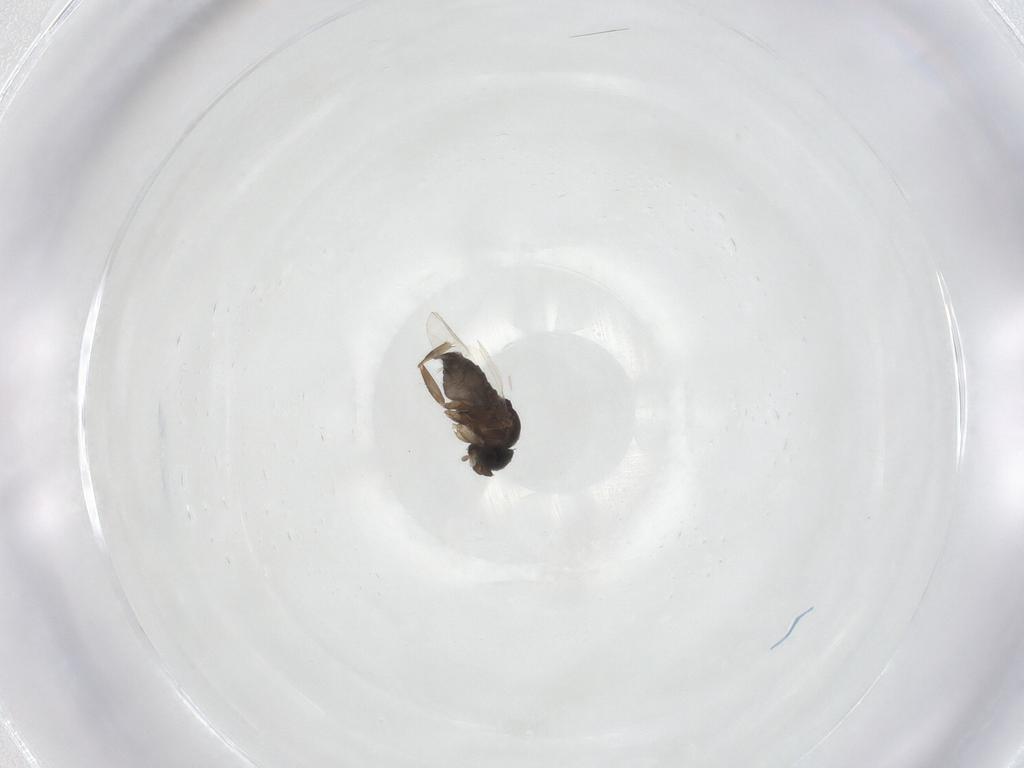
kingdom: Animalia
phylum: Arthropoda
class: Insecta
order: Diptera
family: Phoridae
